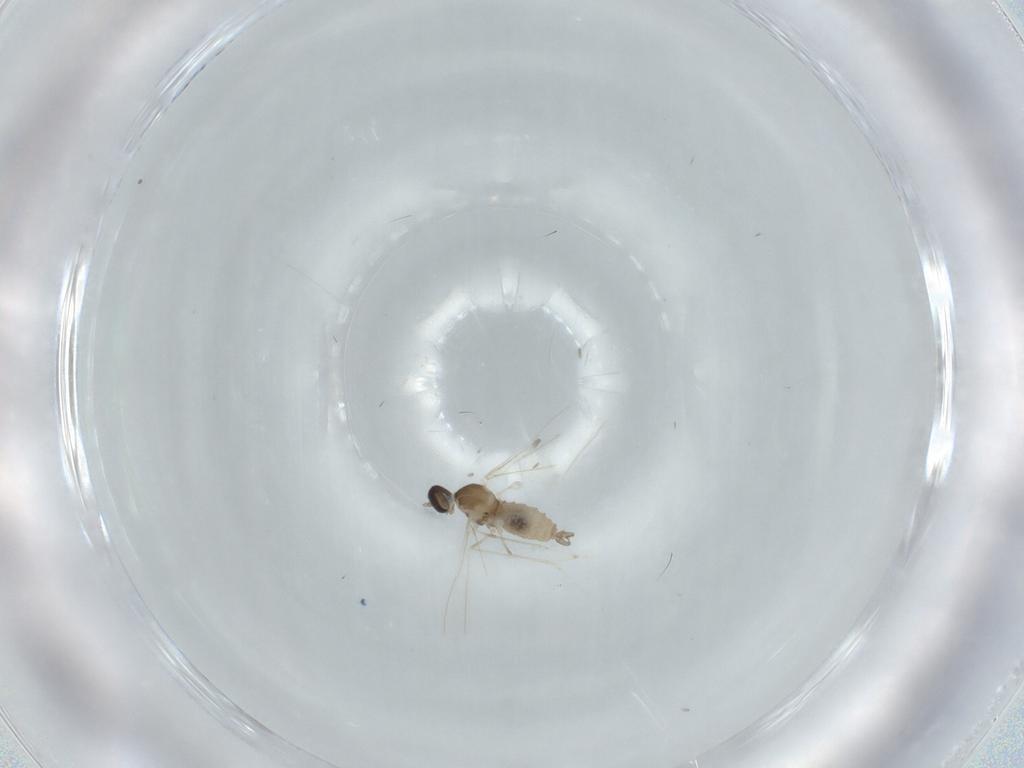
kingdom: Animalia
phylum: Arthropoda
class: Insecta
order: Diptera
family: Cecidomyiidae
